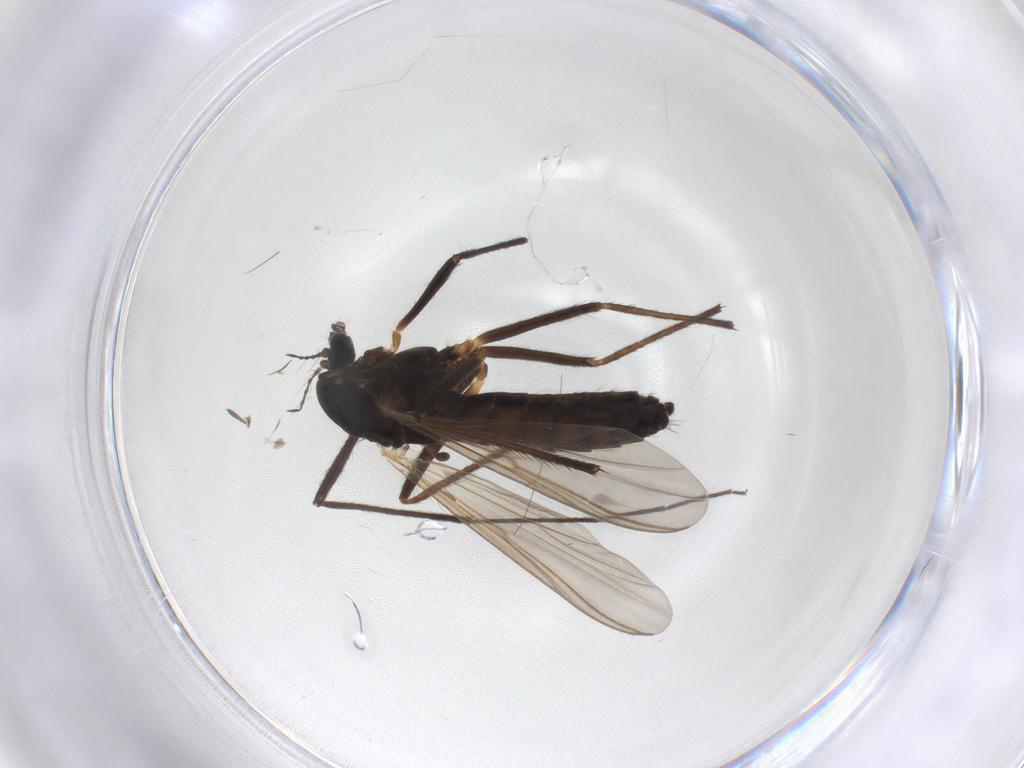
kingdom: Animalia
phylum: Arthropoda
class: Insecta
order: Diptera
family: Chironomidae
